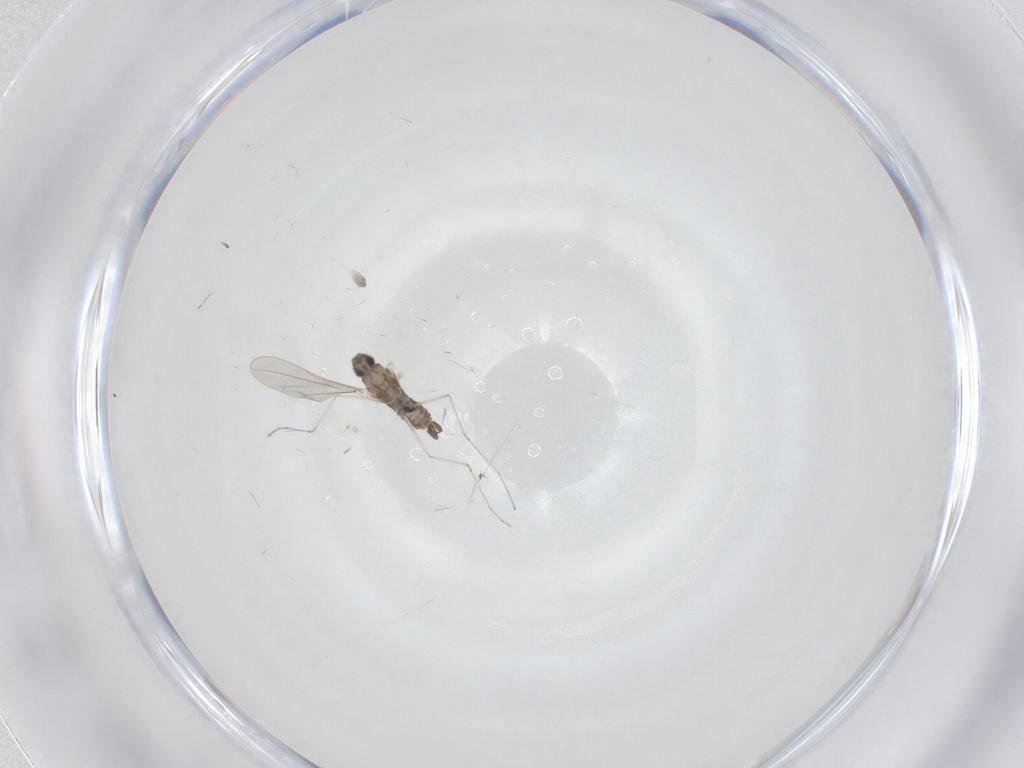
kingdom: Animalia
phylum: Arthropoda
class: Insecta
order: Diptera
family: Cecidomyiidae
